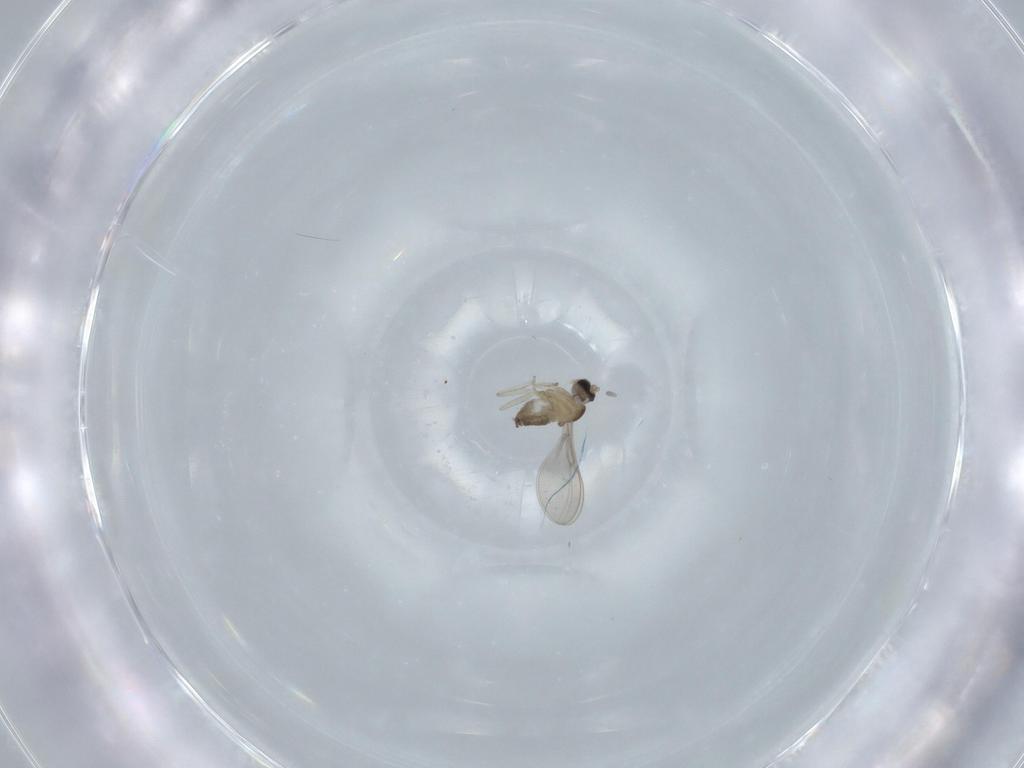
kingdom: Animalia
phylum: Arthropoda
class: Insecta
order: Diptera
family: Cecidomyiidae
